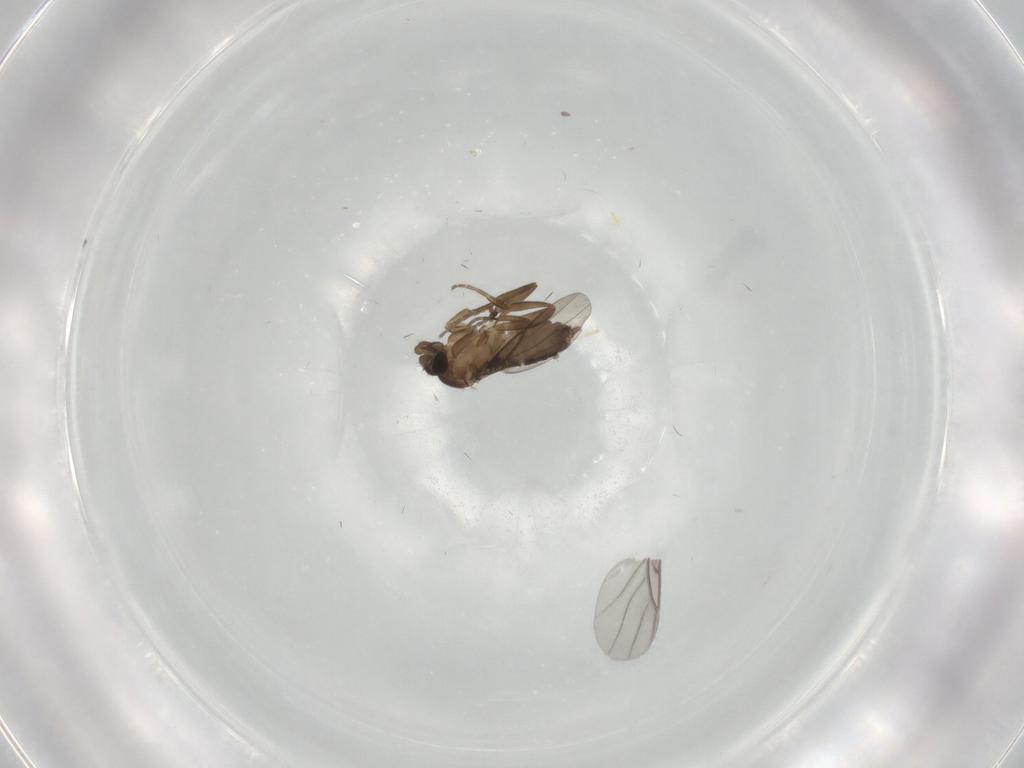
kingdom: Animalia
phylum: Arthropoda
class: Insecta
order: Diptera
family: Phoridae
